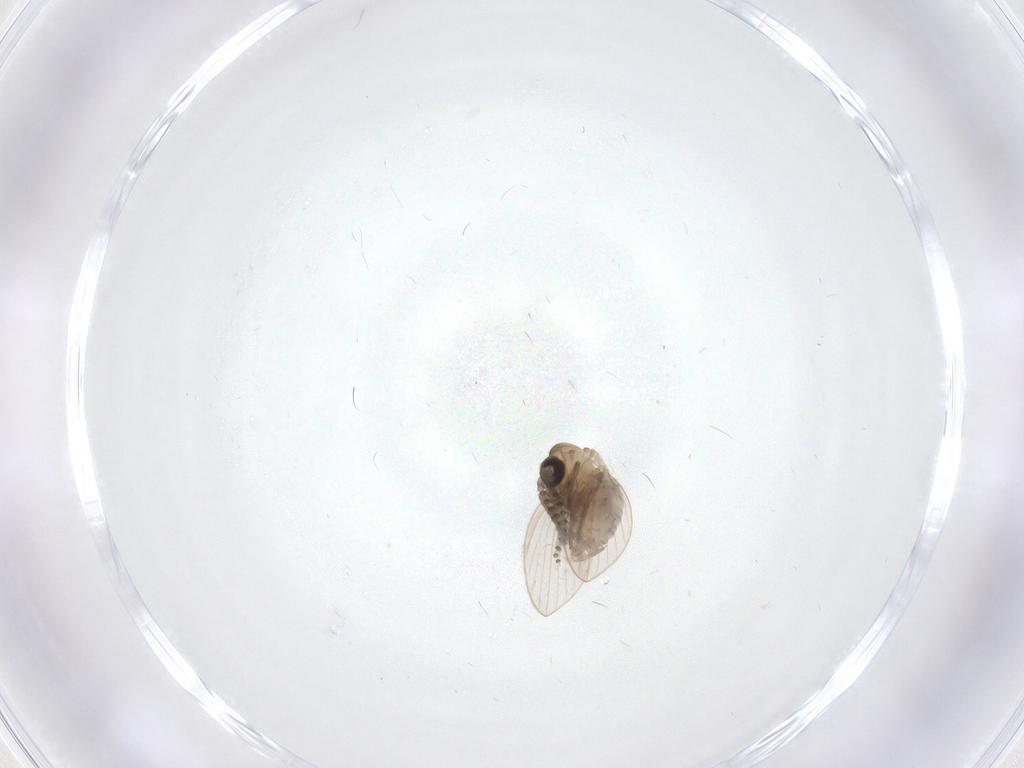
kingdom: Animalia
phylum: Arthropoda
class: Insecta
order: Diptera
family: Psychodidae
